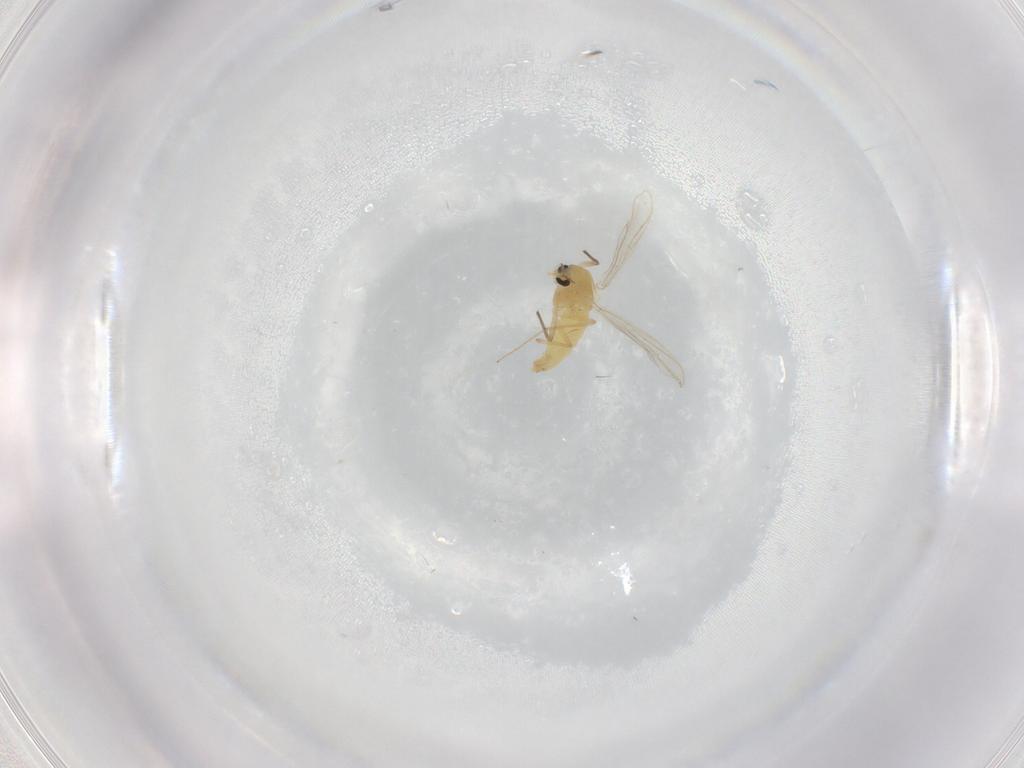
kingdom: Animalia
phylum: Arthropoda
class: Insecta
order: Diptera
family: Chironomidae
